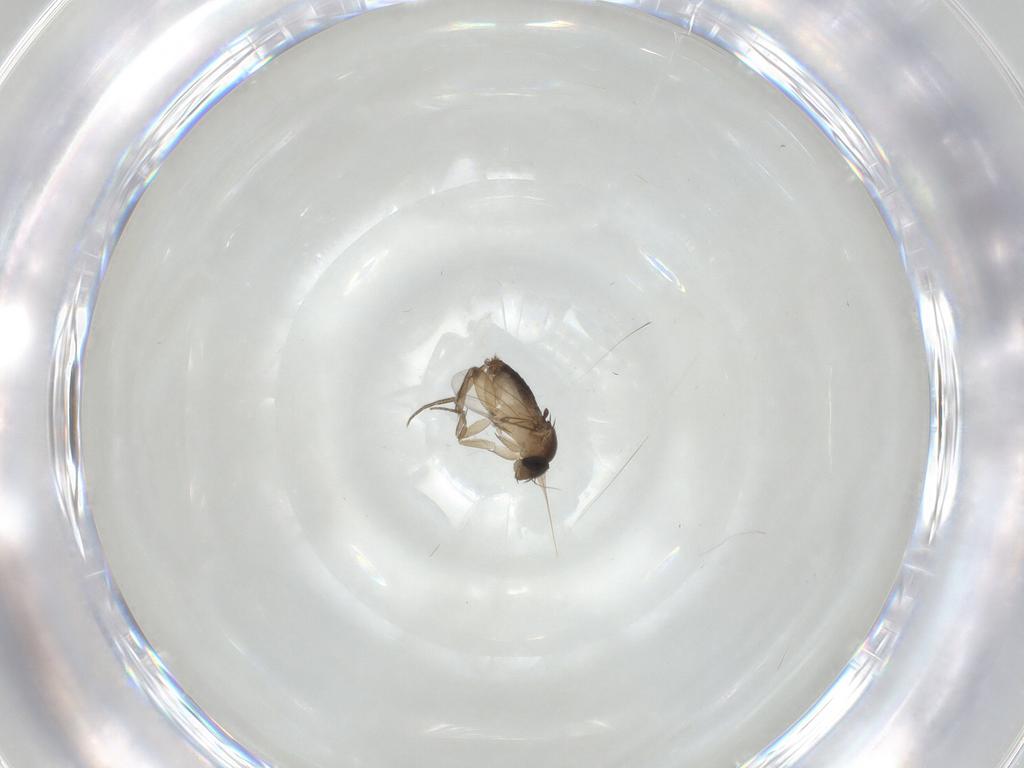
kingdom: Animalia
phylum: Arthropoda
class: Insecta
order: Diptera
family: Phoridae
